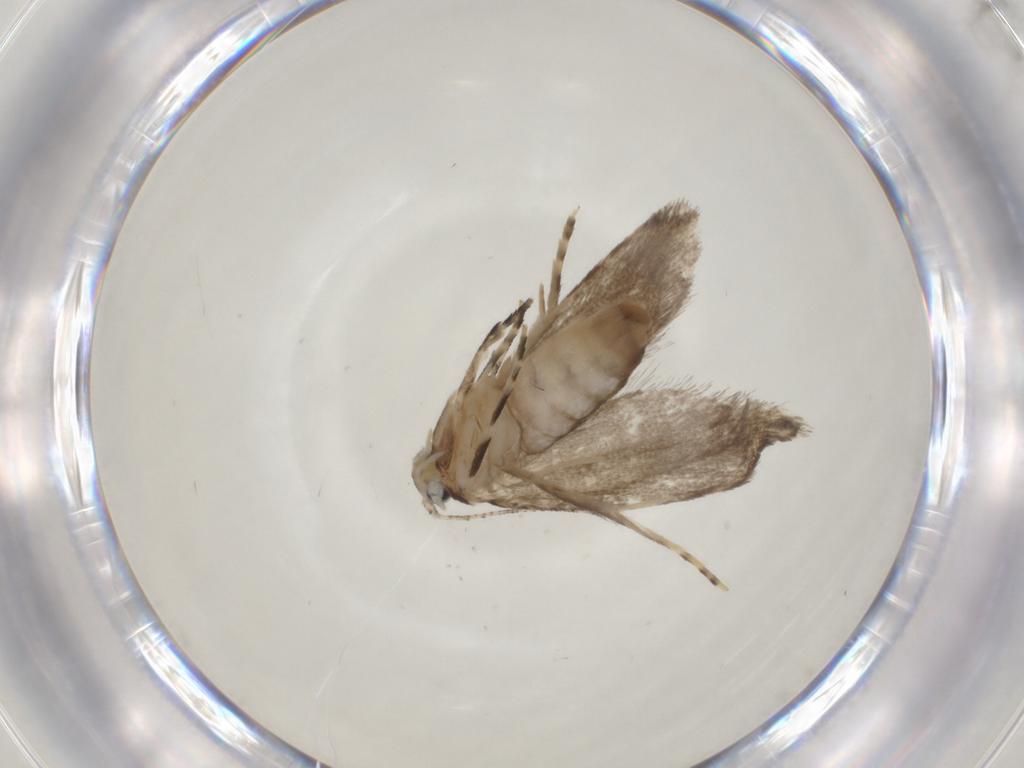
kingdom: Animalia
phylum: Arthropoda
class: Insecta
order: Lepidoptera
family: Tineidae
